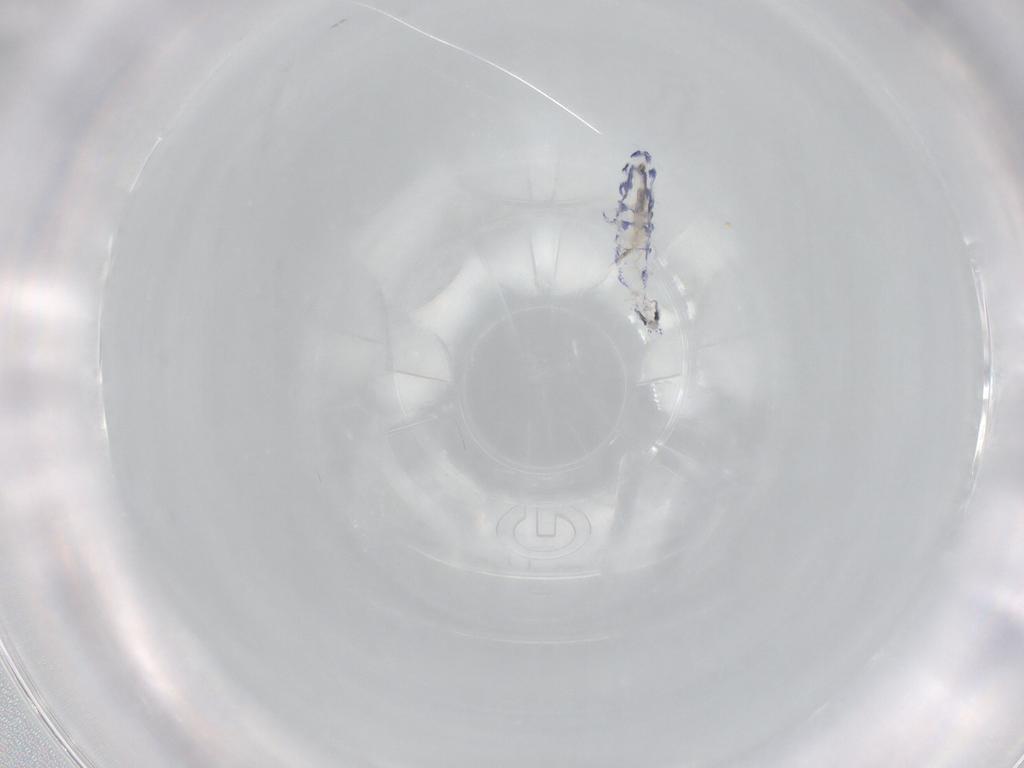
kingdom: Animalia
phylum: Arthropoda
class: Collembola
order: Entomobryomorpha
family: Entomobryidae
